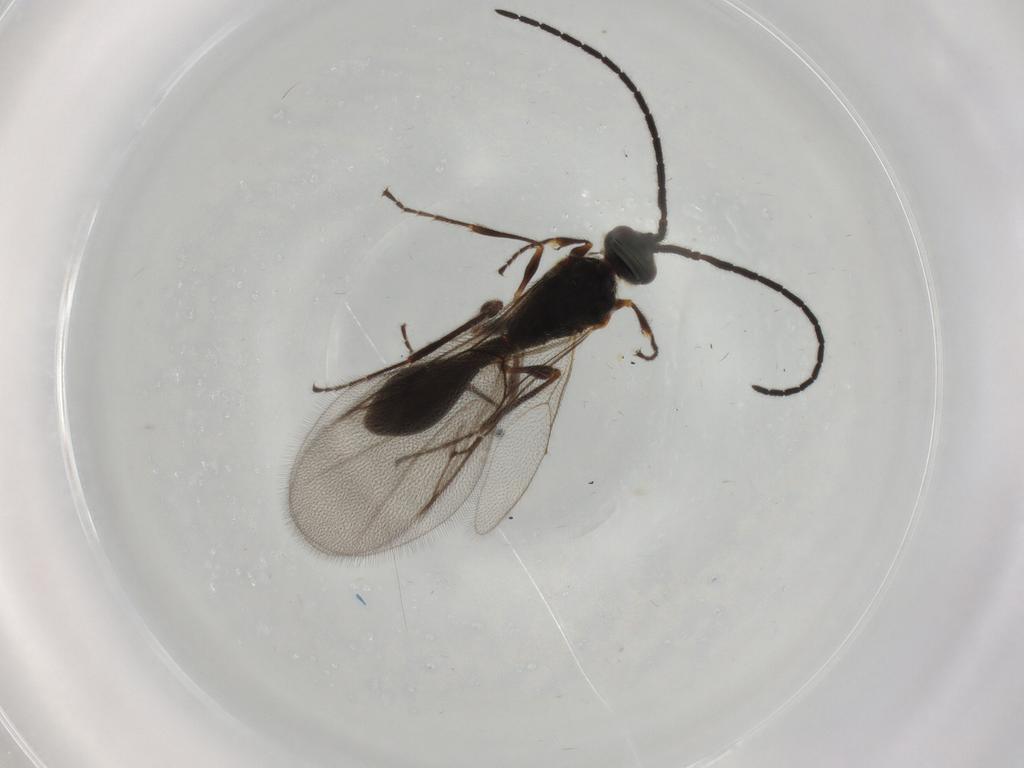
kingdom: Animalia
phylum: Arthropoda
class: Insecta
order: Hymenoptera
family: Diapriidae
